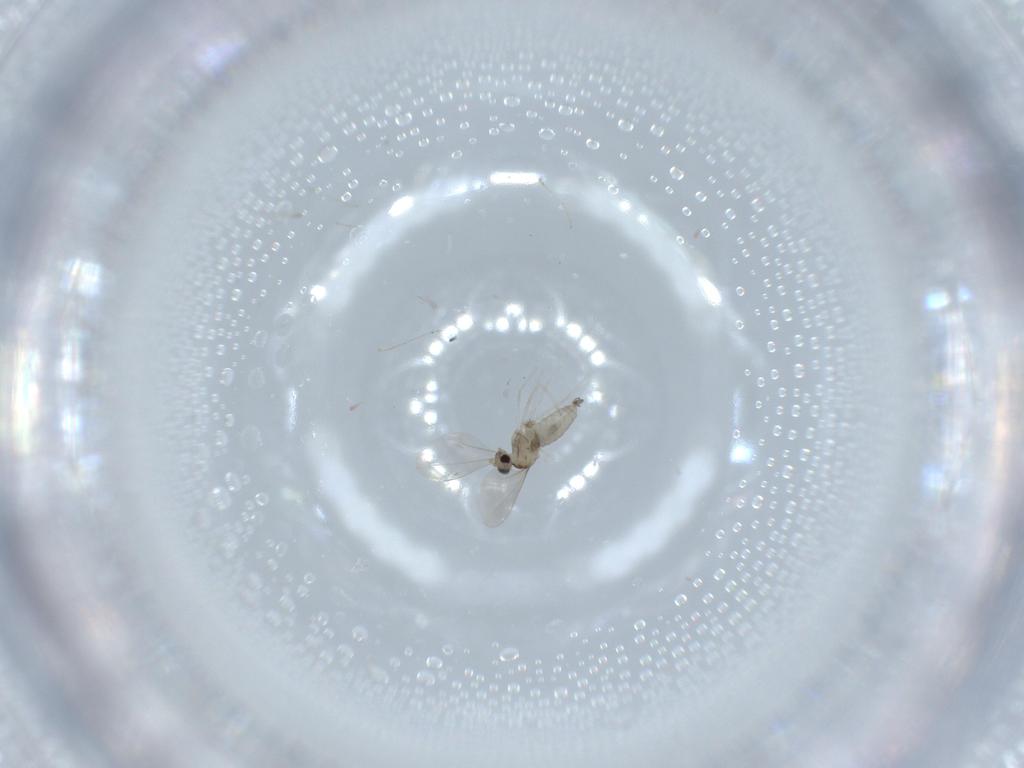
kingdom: Animalia
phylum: Arthropoda
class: Insecta
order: Diptera
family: Cecidomyiidae
